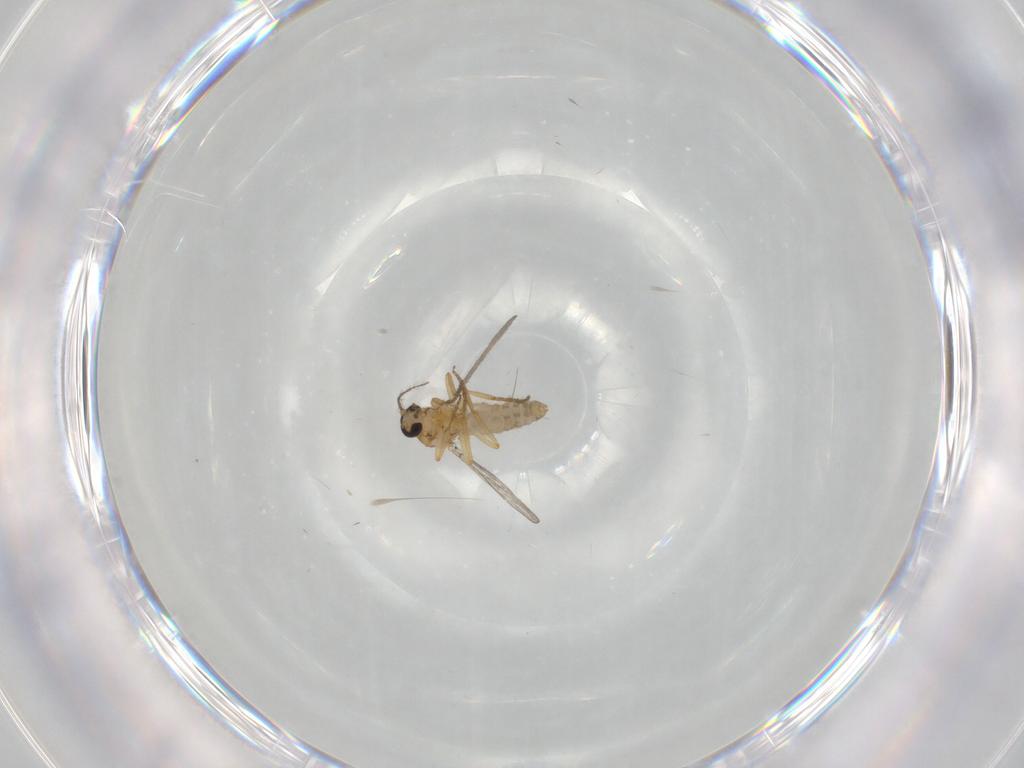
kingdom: Animalia
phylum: Arthropoda
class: Insecta
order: Diptera
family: Ceratopogonidae
